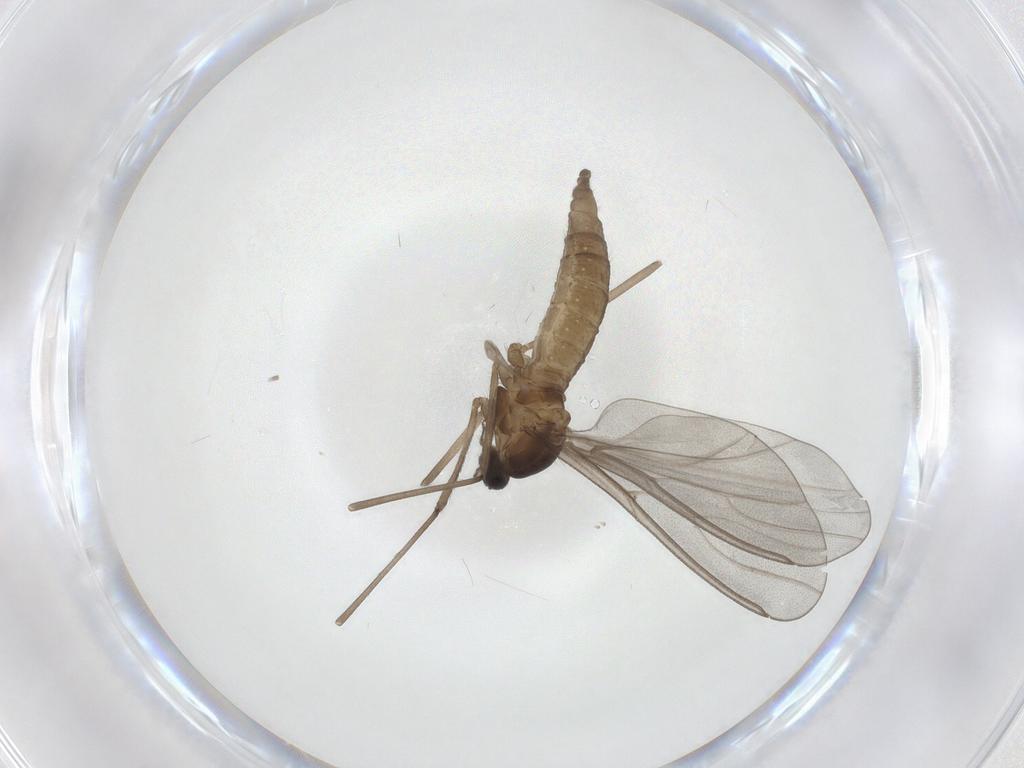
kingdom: Animalia
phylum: Arthropoda
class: Insecta
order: Diptera
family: Cecidomyiidae
